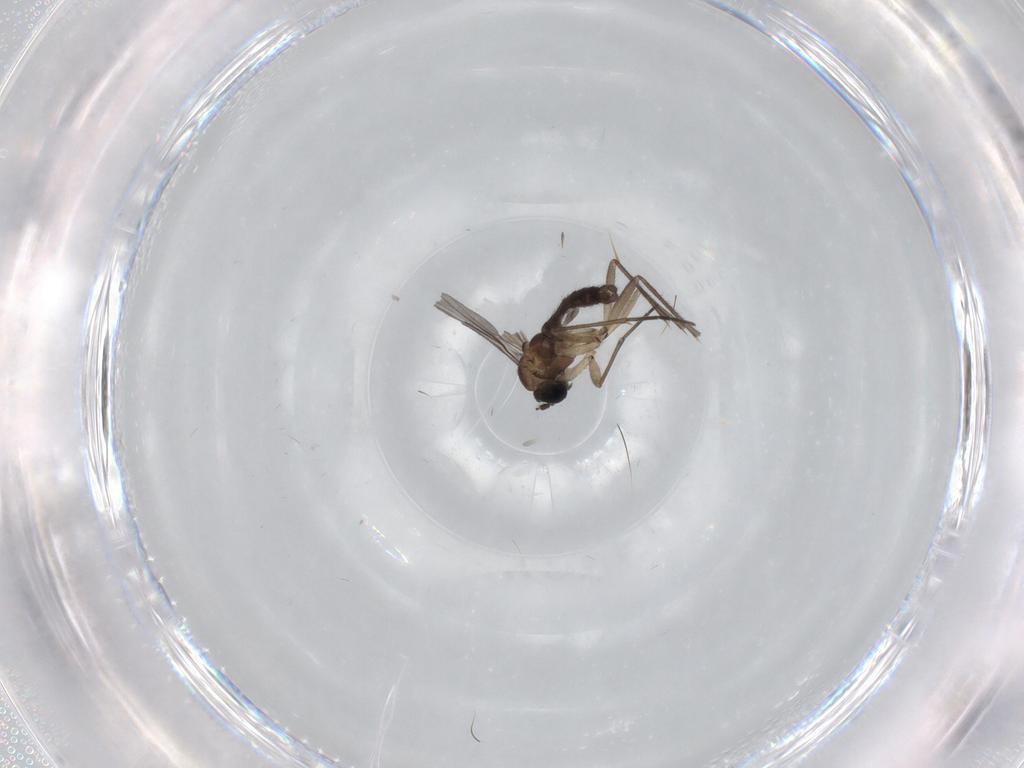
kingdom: Animalia
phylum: Arthropoda
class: Insecta
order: Diptera
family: Sciaridae
